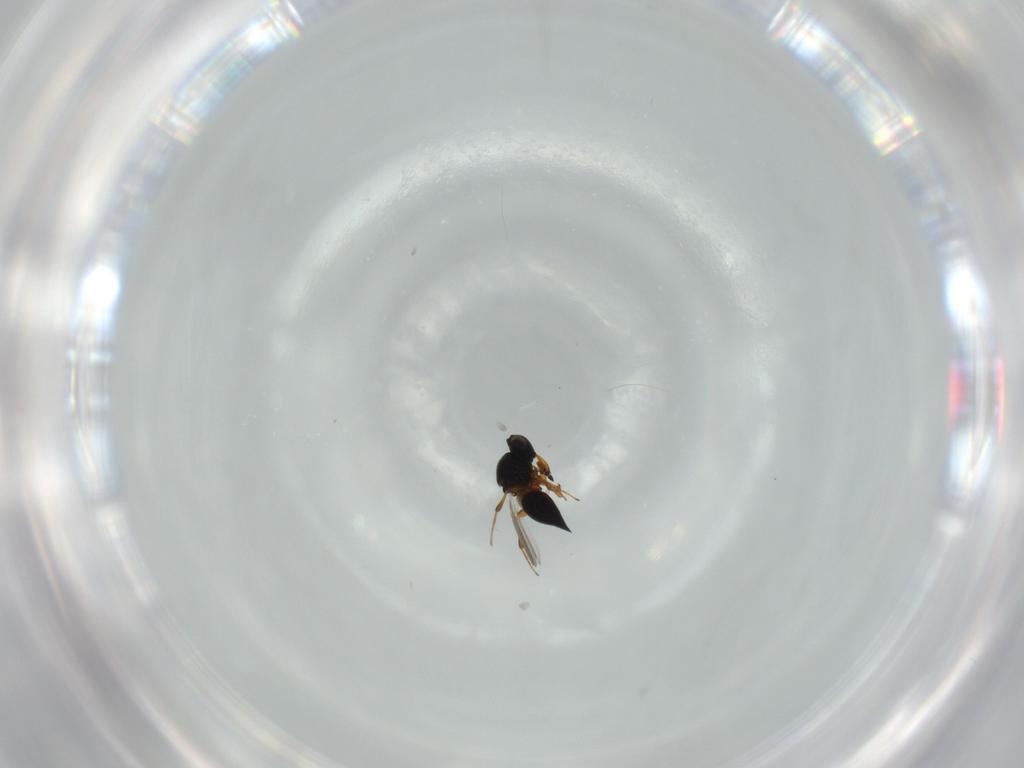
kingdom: Animalia
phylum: Arthropoda
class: Insecta
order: Hymenoptera
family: Platygastridae
